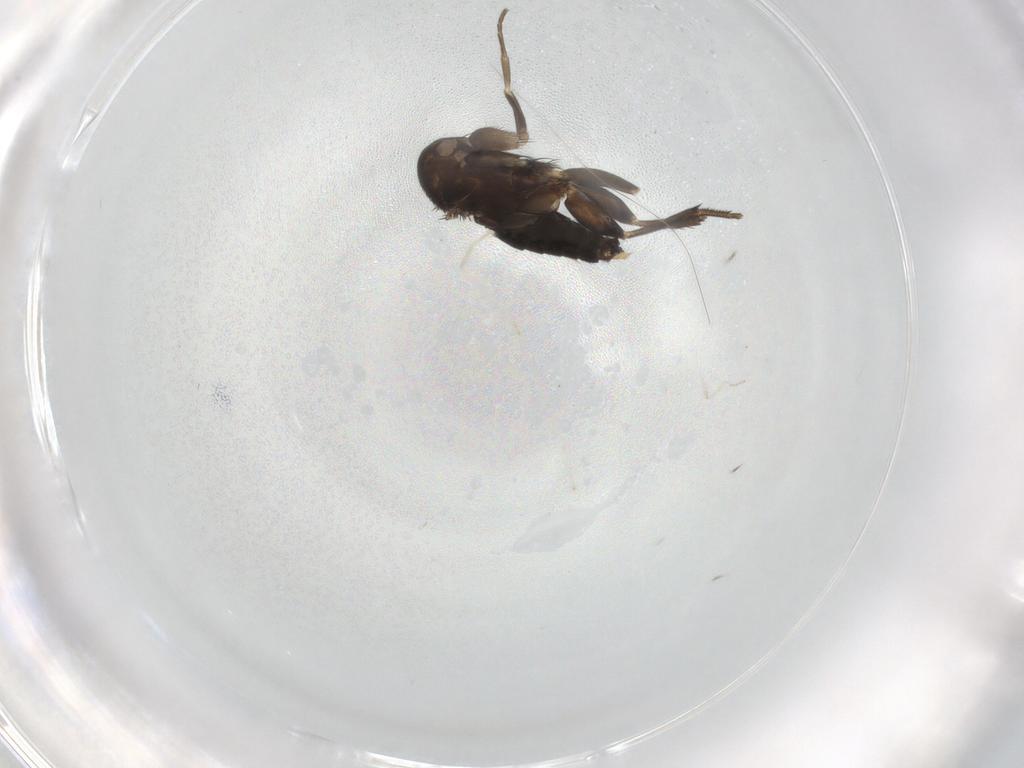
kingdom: Animalia
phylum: Arthropoda
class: Insecta
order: Diptera
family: Phoridae
